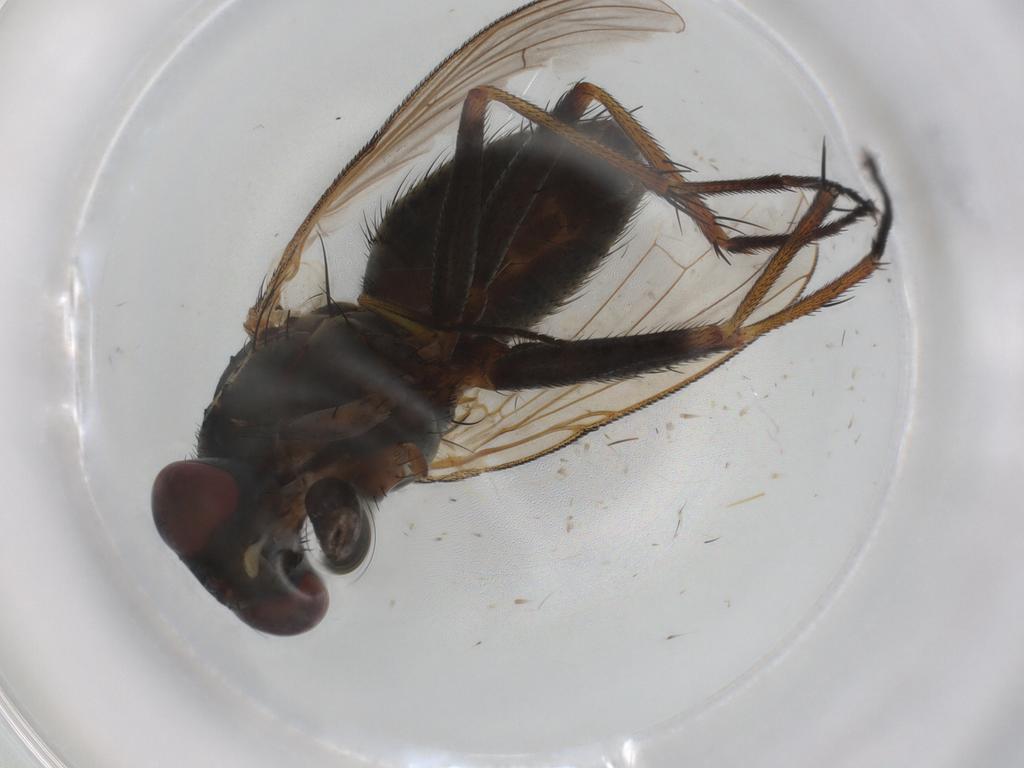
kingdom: Animalia
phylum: Arthropoda
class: Insecta
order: Diptera
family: Muscidae
